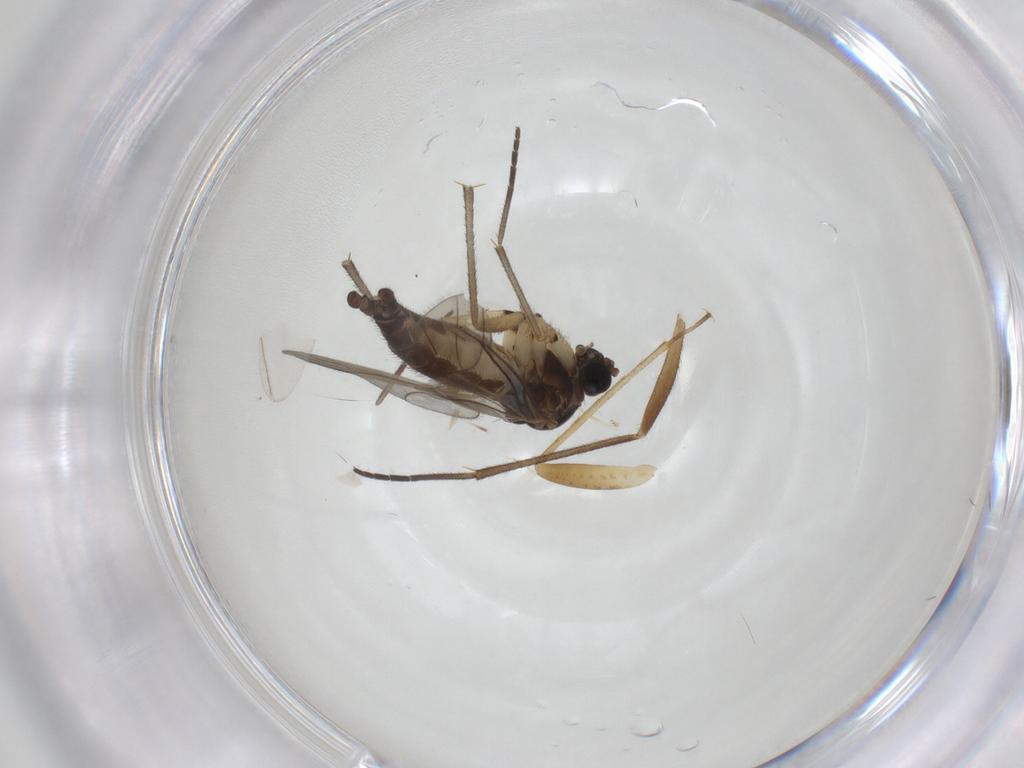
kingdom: Animalia
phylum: Arthropoda
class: Insecta
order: Diptera
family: Sciaridae
